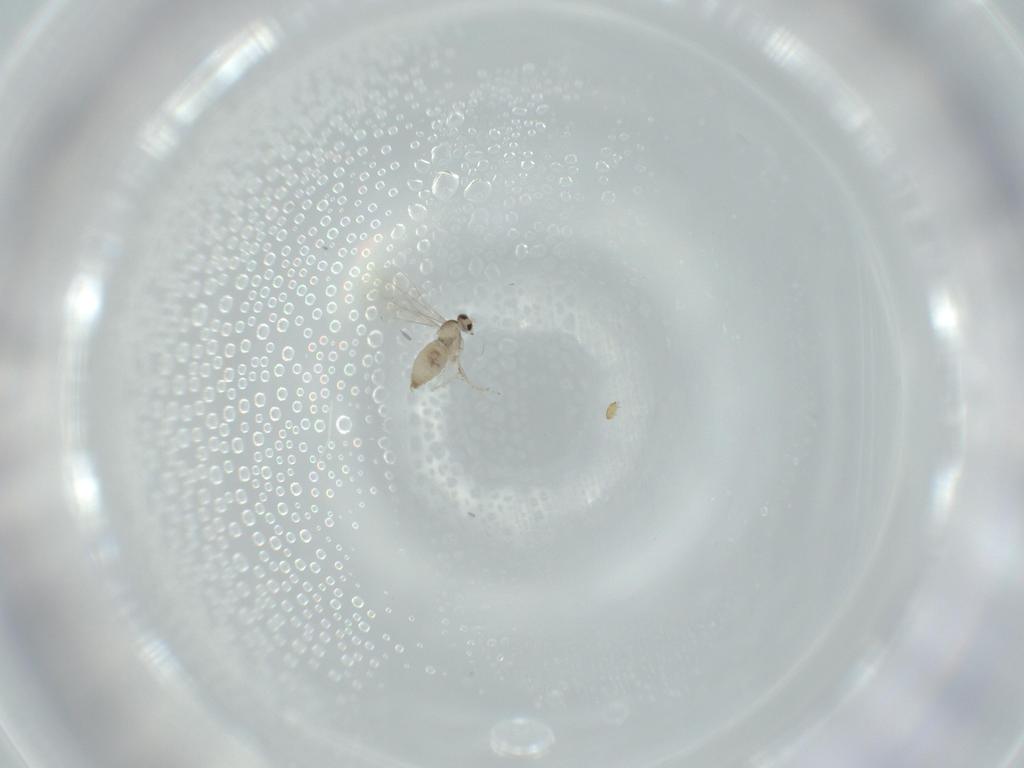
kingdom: Animalia
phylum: Arthropoda
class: Insecta
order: Diptera
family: Cecidomyiidae
